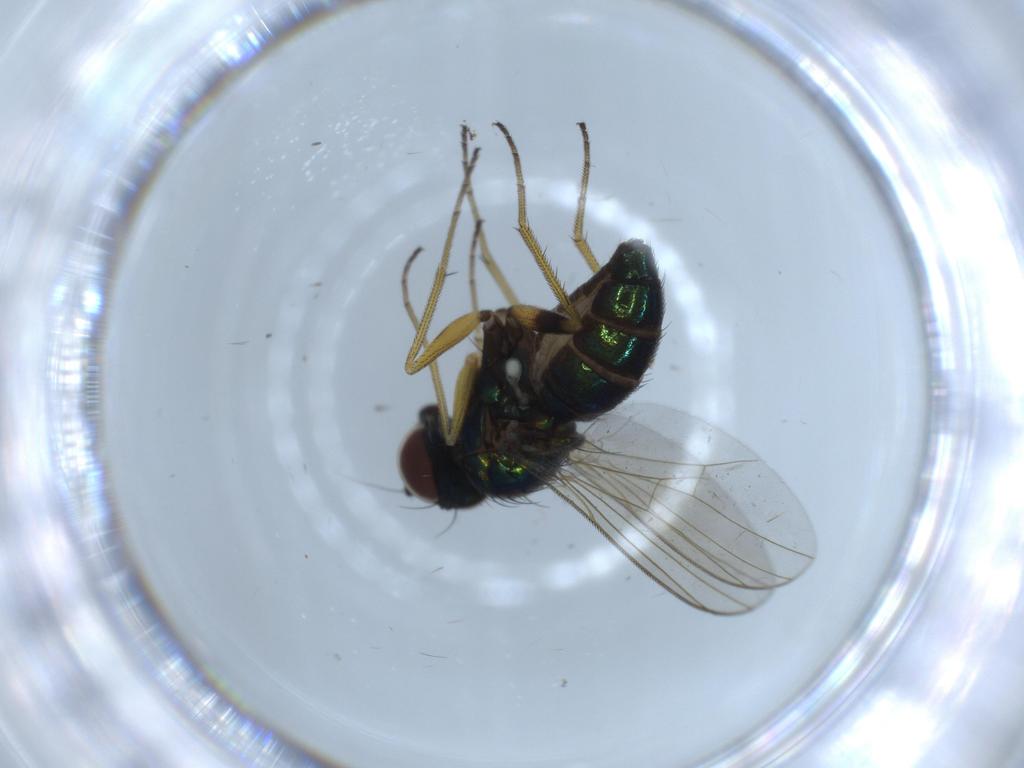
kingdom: Animalia
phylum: Arthropoda
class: Insecta
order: Diptera
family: Dolichopodidae
